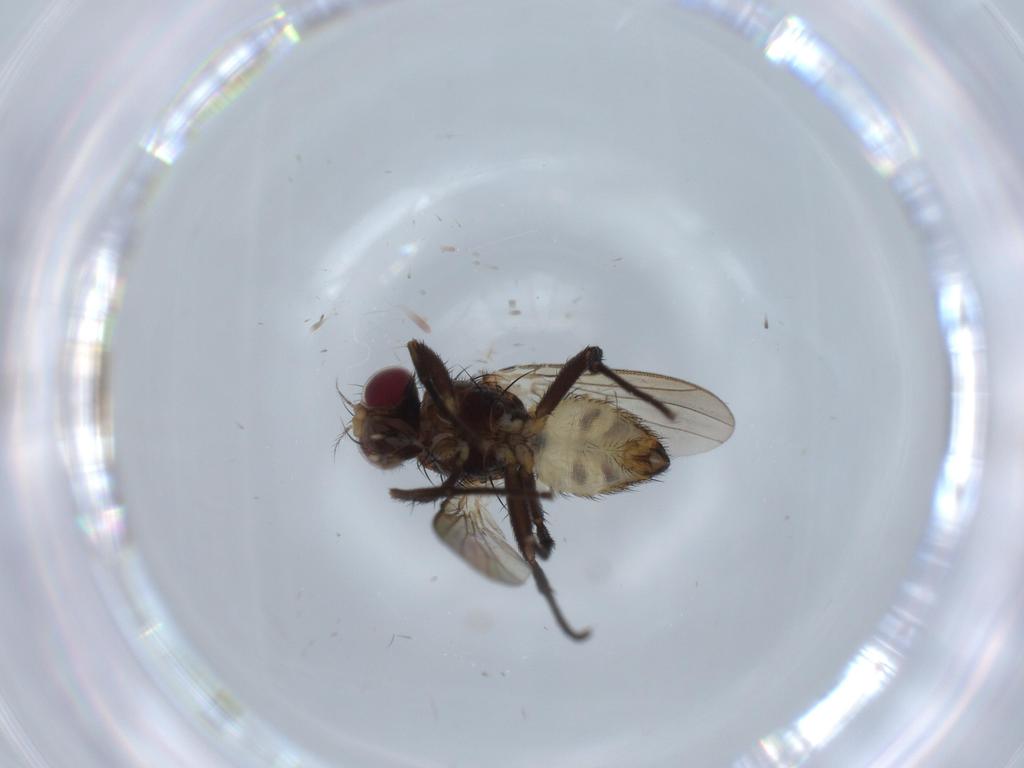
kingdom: Animalia
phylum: Arthropoda
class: Insecta
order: Diptera
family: Anthomyiidae
